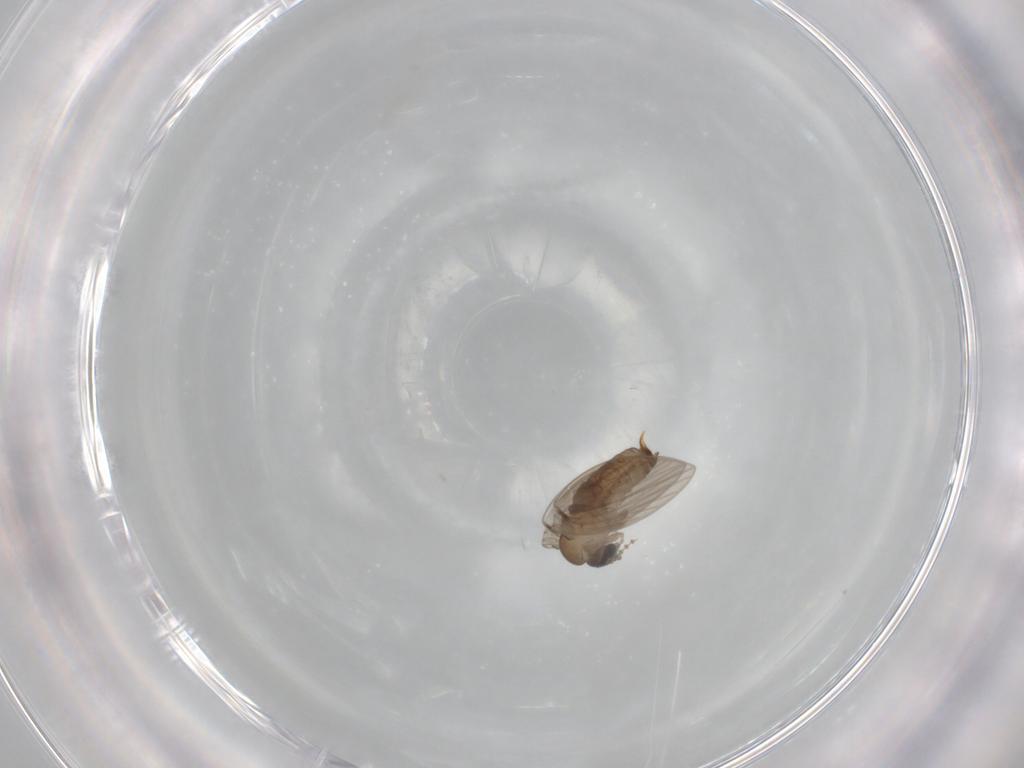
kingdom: Animalia
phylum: Arthropoda
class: Insecta
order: Diptera
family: Psychodidae
